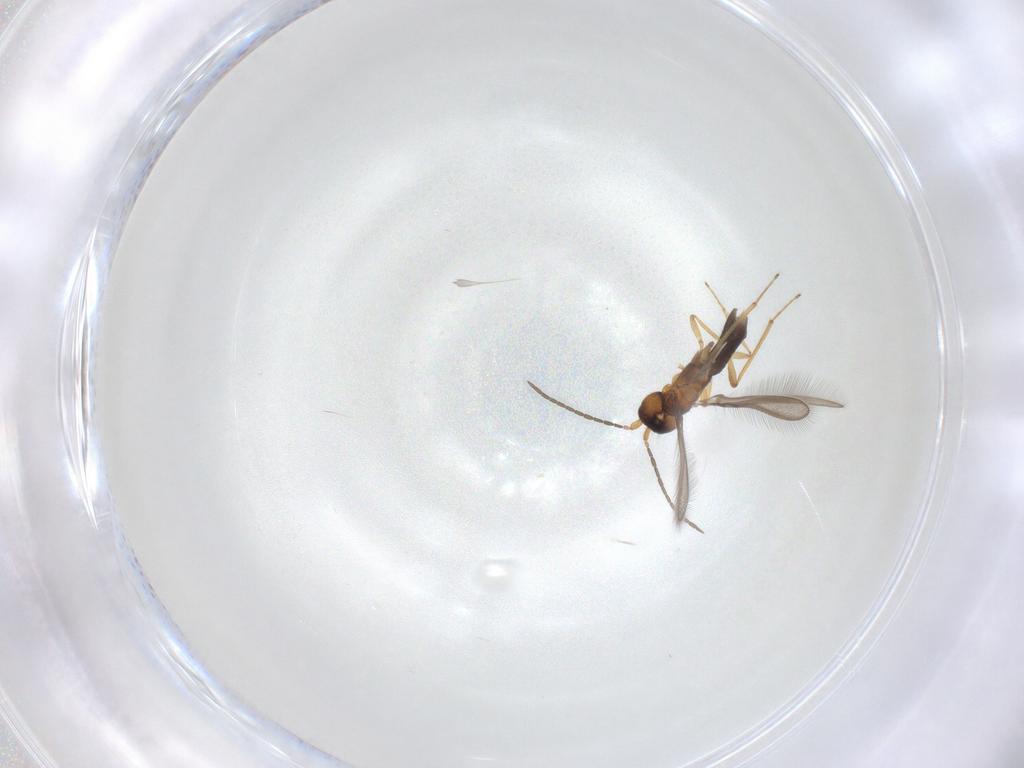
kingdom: Animalia
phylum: Arthropoda
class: Insecta
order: Hymenoptera
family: Mymaridae
